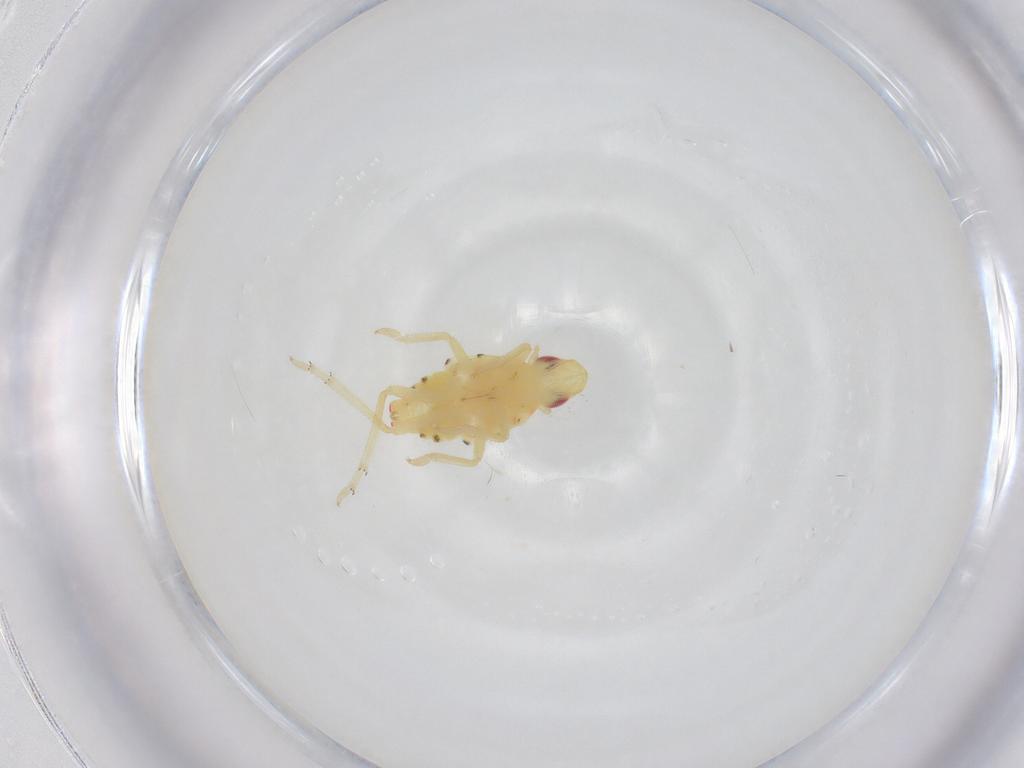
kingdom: Animalia
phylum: Arthropoda
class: Insecta
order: Hemiptera
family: Tropiduchidae
